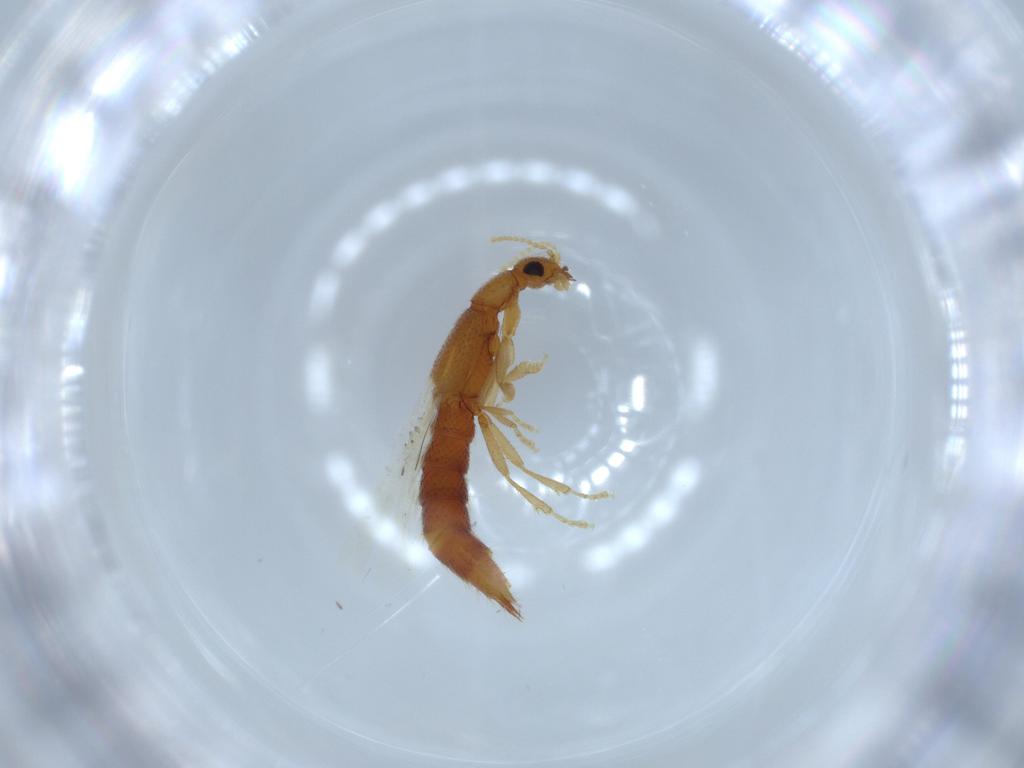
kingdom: Animalia
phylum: Arthropoda
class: Insecta
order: Coleoptera
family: Staphylinidae
